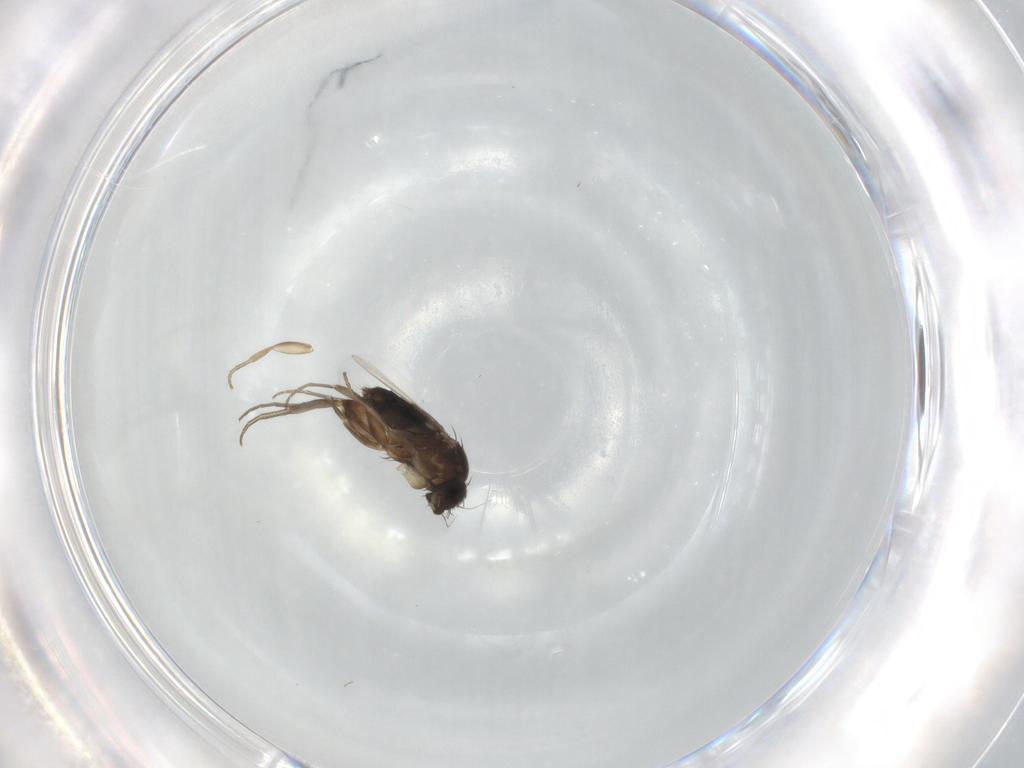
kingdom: Animalia
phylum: Arthropoda
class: Insecta
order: Diptera
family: Phoridae
